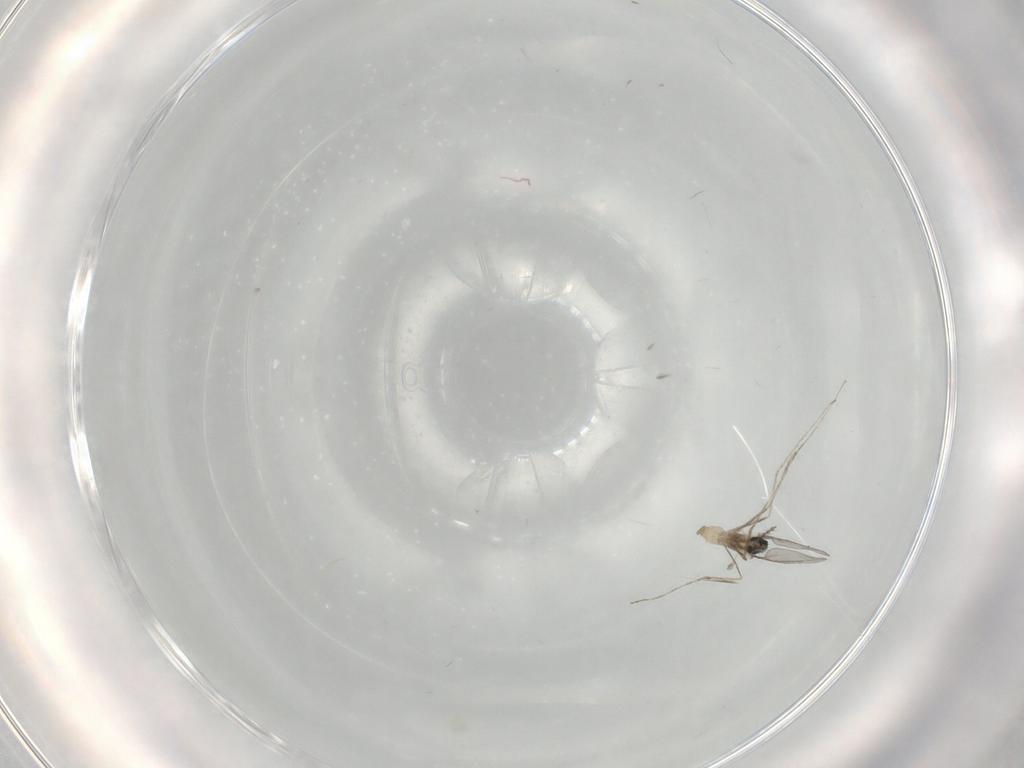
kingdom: Animalia
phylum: Arthropoda
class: Insecta
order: Diptera
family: Chironomidae
